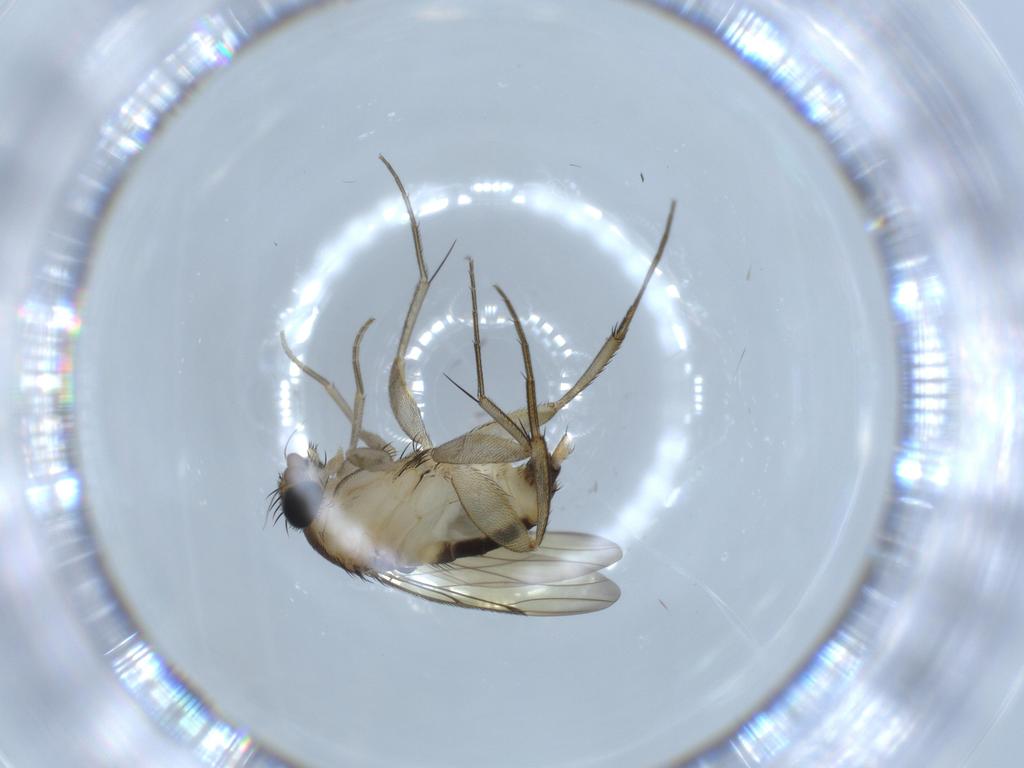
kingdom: Animalia
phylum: Arthropoda
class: Insecta
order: Diptera
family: Phoridae
